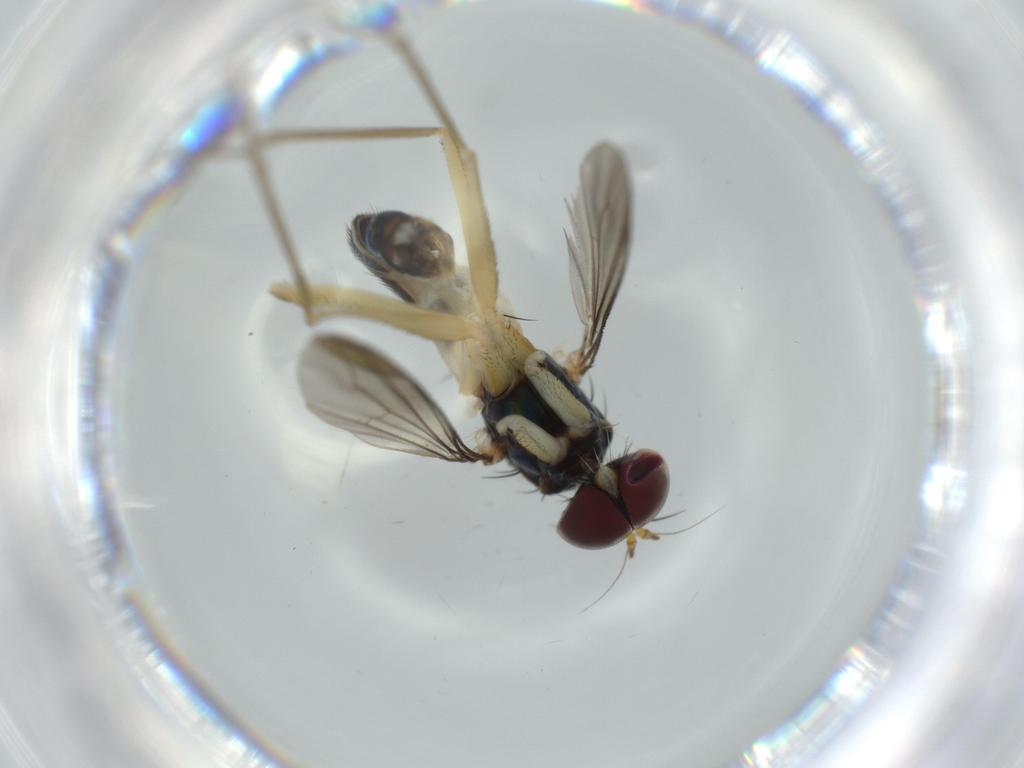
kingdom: Animalia
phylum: Arthropoda
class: Insecta
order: Diptera
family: Dolichopodidae
